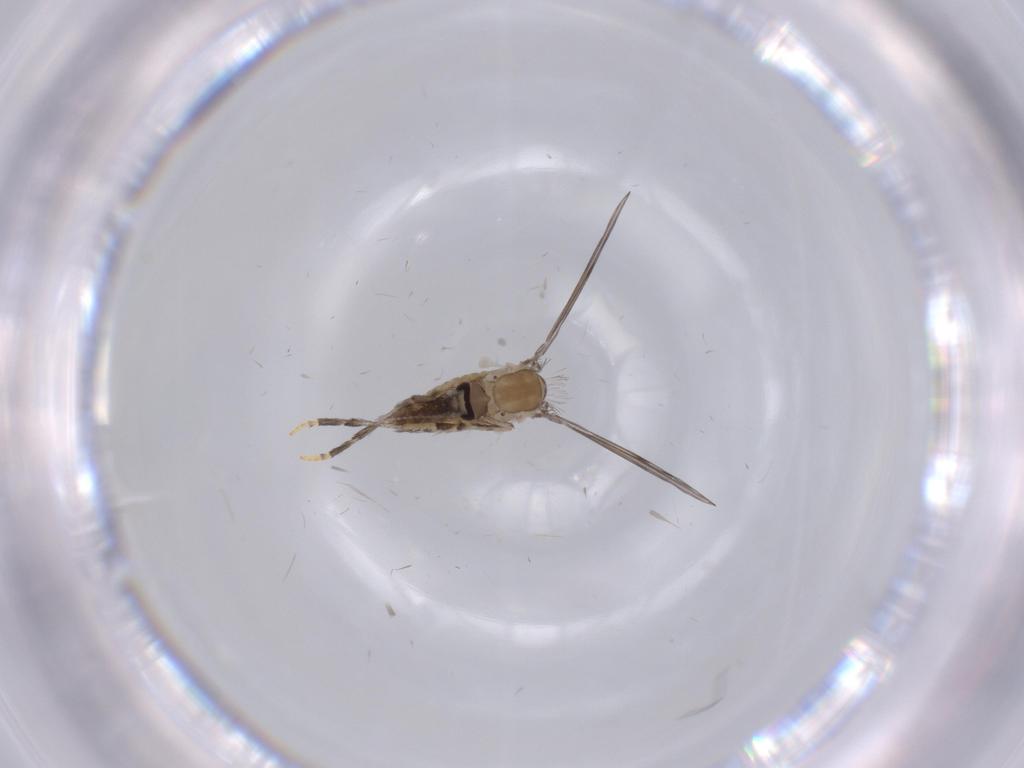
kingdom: Animalia
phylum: Arthropoda
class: Insecta
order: Diptera
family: Psychodidae
